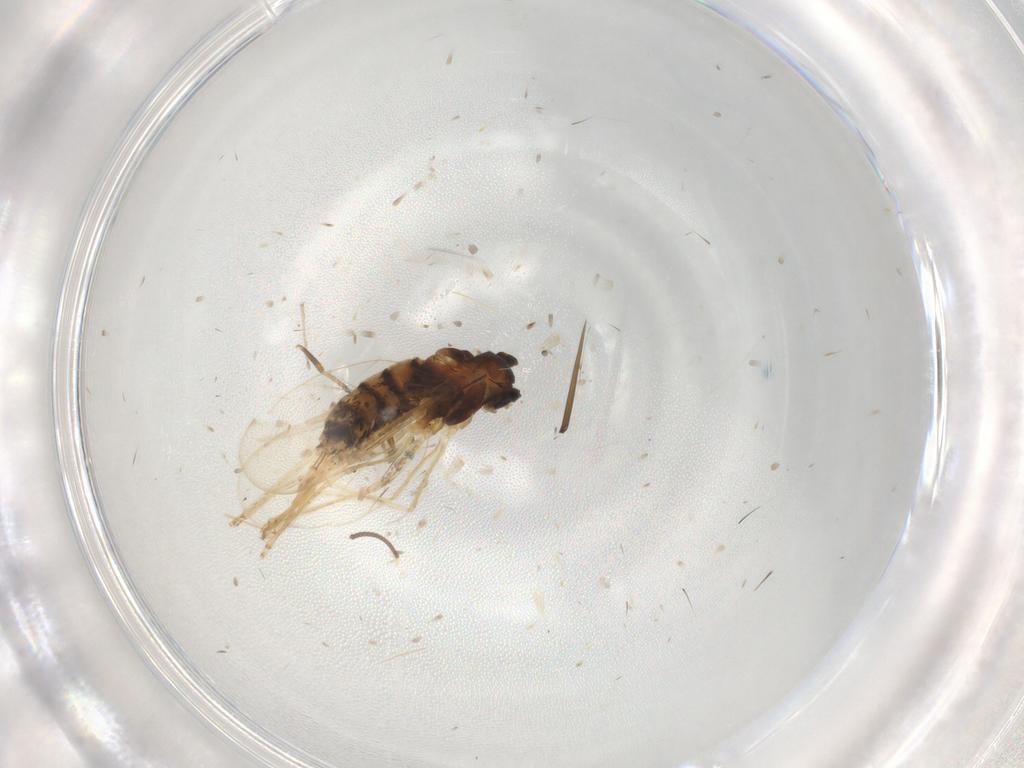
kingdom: Animalia
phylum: Arthropoda
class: Insecta
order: Diptera
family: Cecidomyiidae
